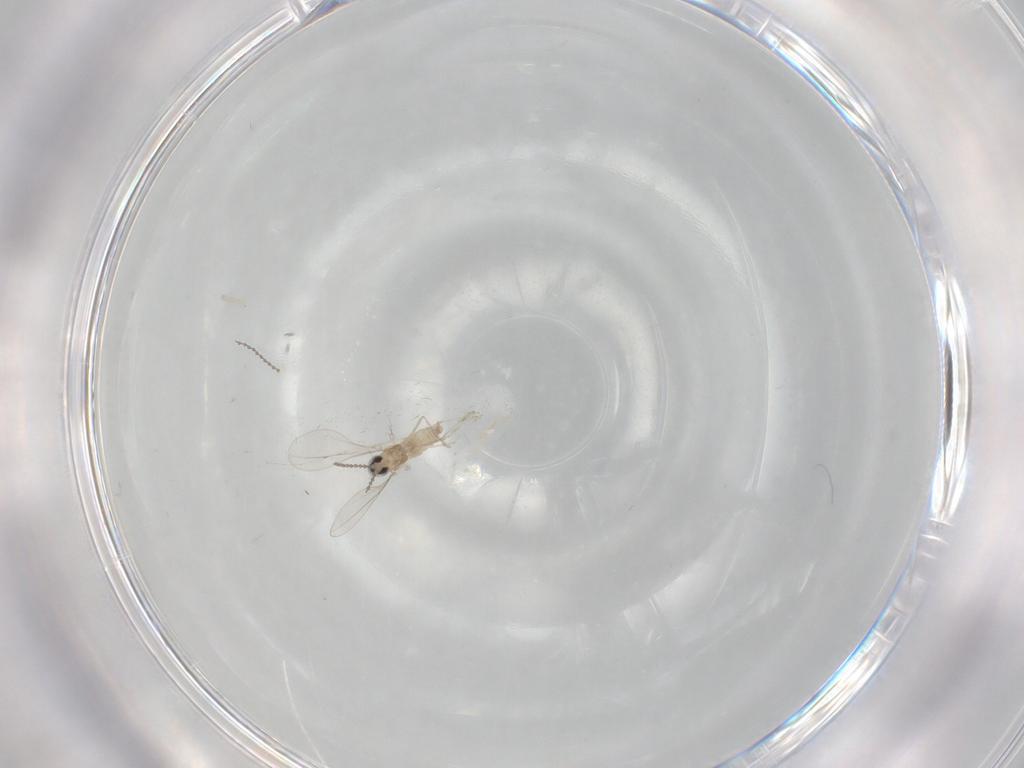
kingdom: Animalia
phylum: Arthropoda
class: Insecta
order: Diptera
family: Cecidomyiidae
